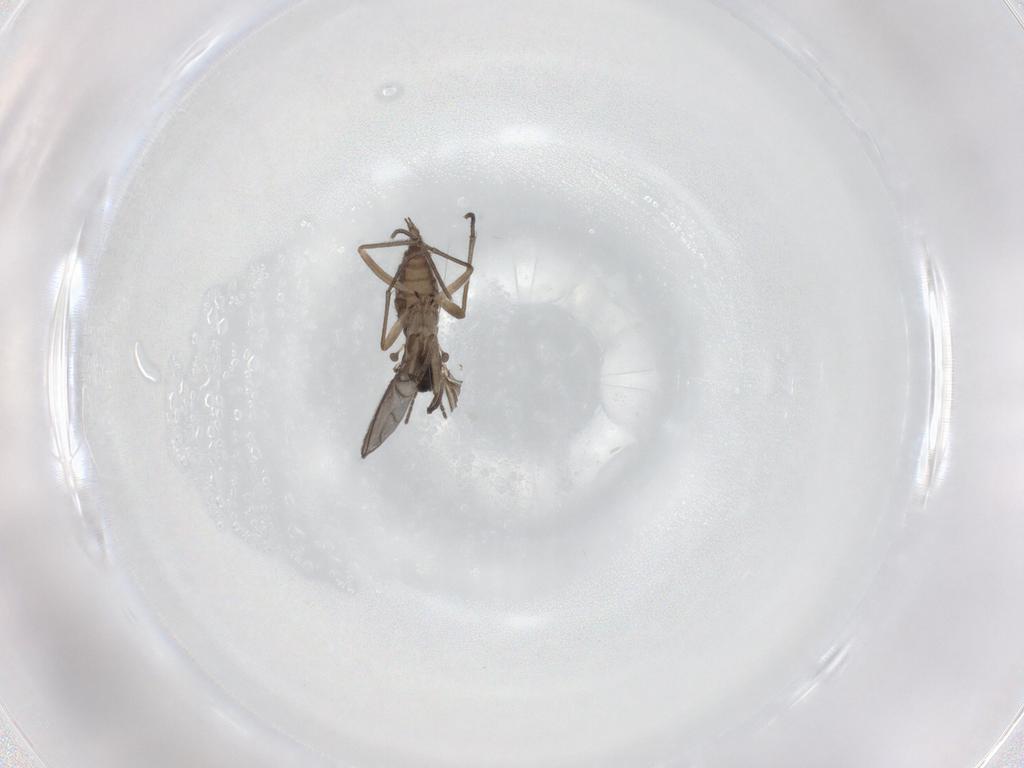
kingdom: Animalia
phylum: Arthropoda
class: Insecta
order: Diptera
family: Sciaridae
